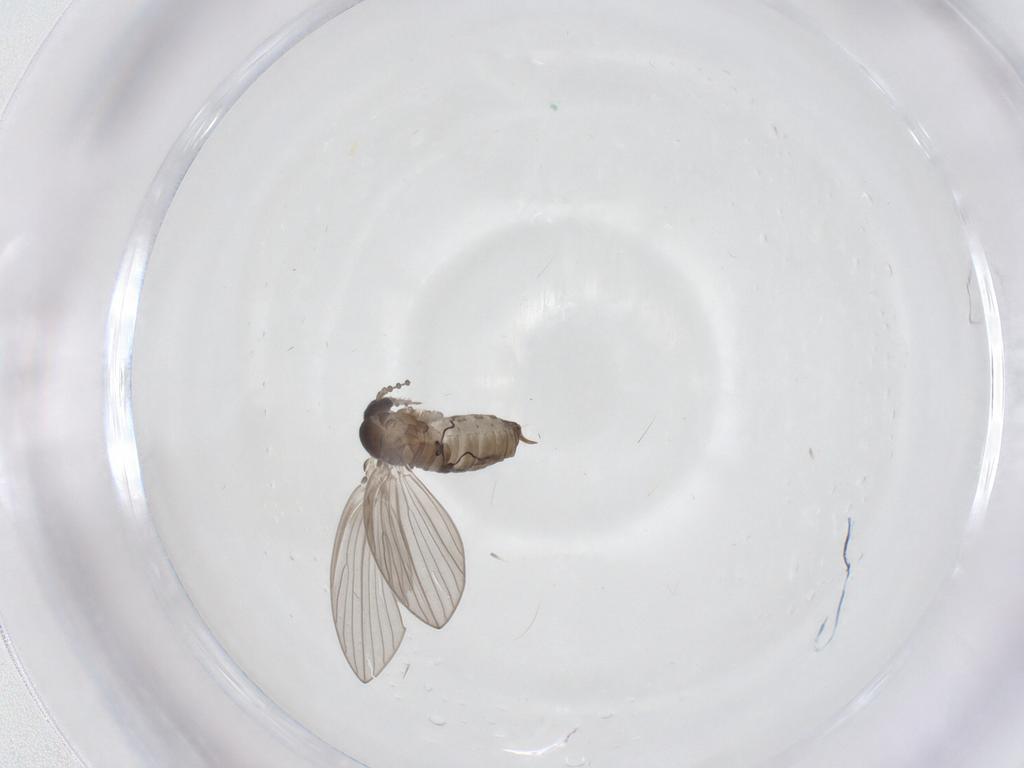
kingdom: Animalia
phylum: Arthropoda
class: Insecta
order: Diptera
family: Psychodidae
